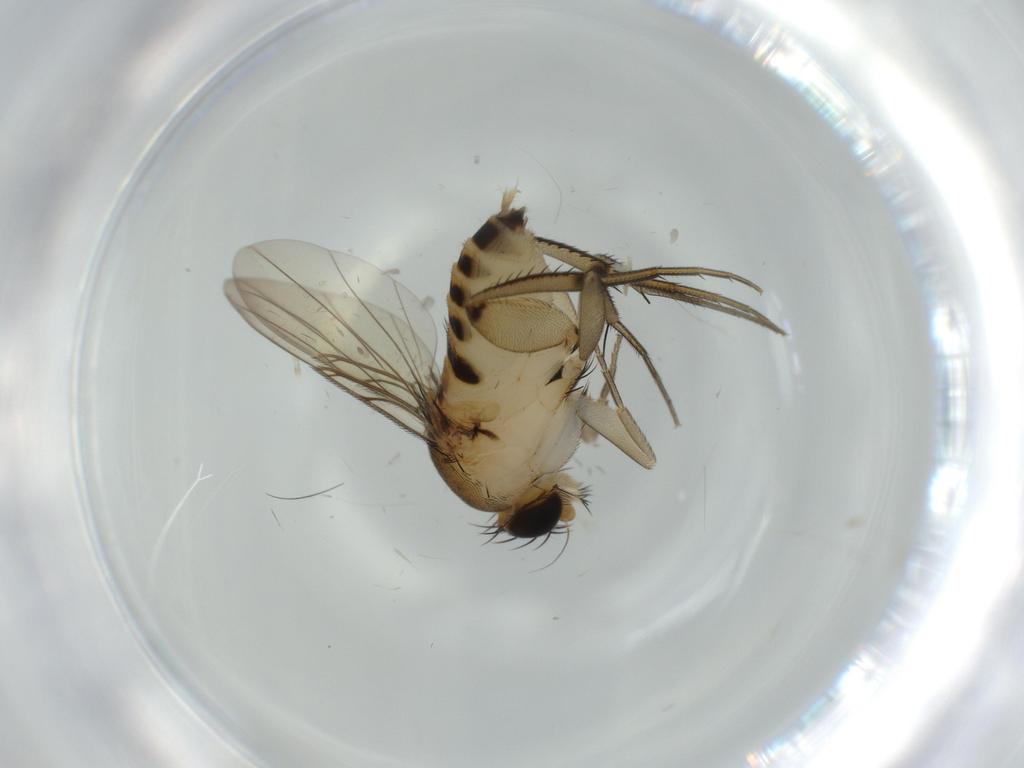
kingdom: Animalia
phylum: Arthropoda
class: Insecta
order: Diptera
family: Phoridae
